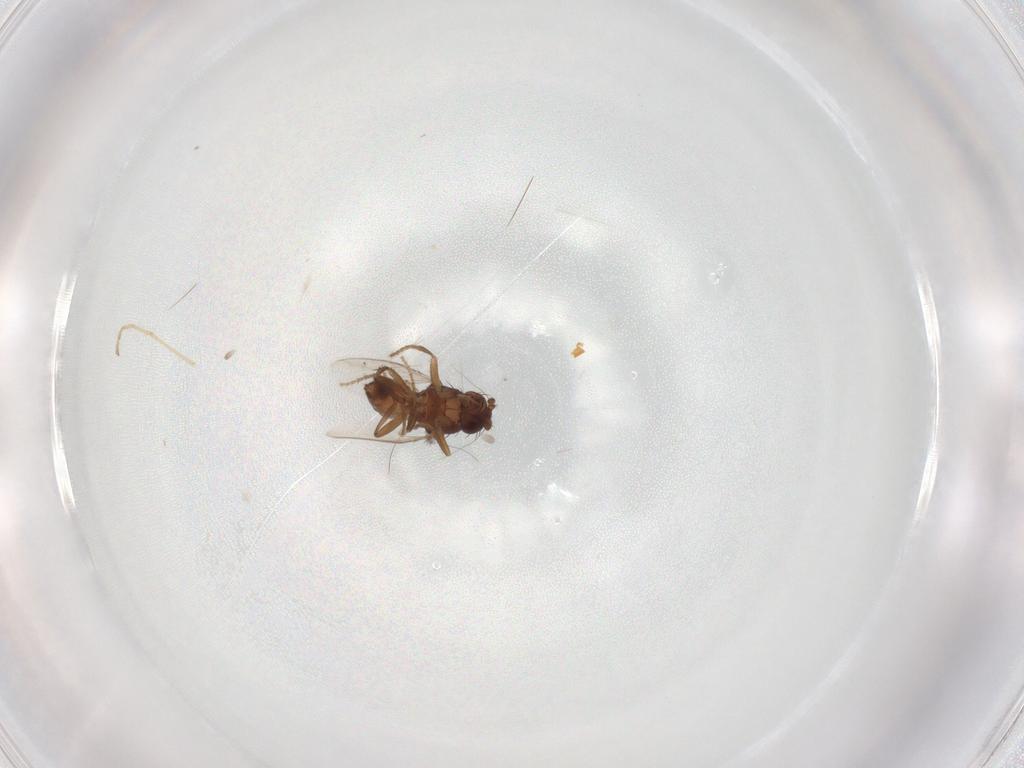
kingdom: Animalia
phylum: Arthropoda
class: Insecta
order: Diptera
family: Limoniidae
